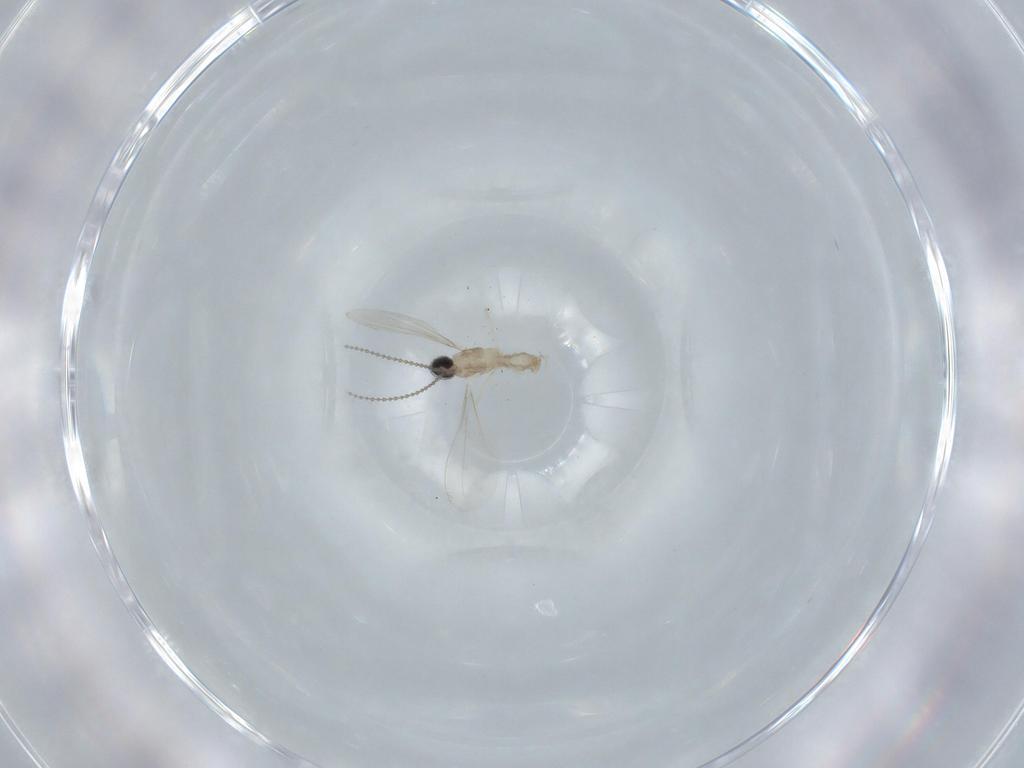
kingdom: Animalia
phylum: Arthropoda
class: Insecta
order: Diptera
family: Cecidomyiidae
